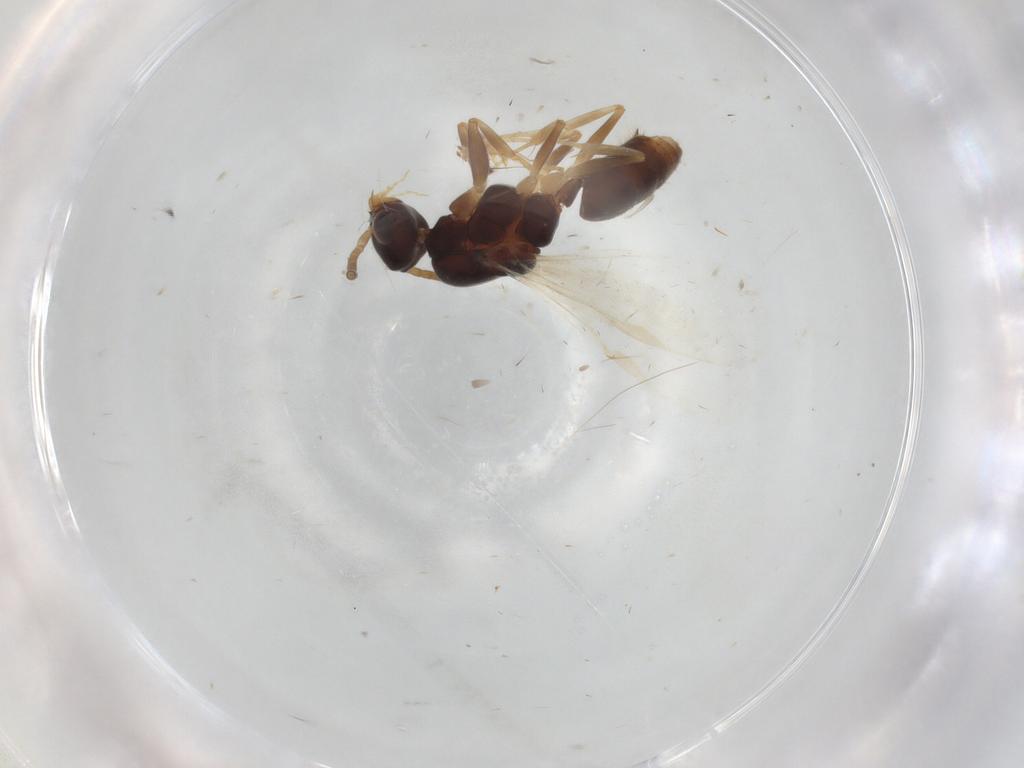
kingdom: Animalia
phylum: Arthropoda
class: Insecta
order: Hymenoptera
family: Formicidae
